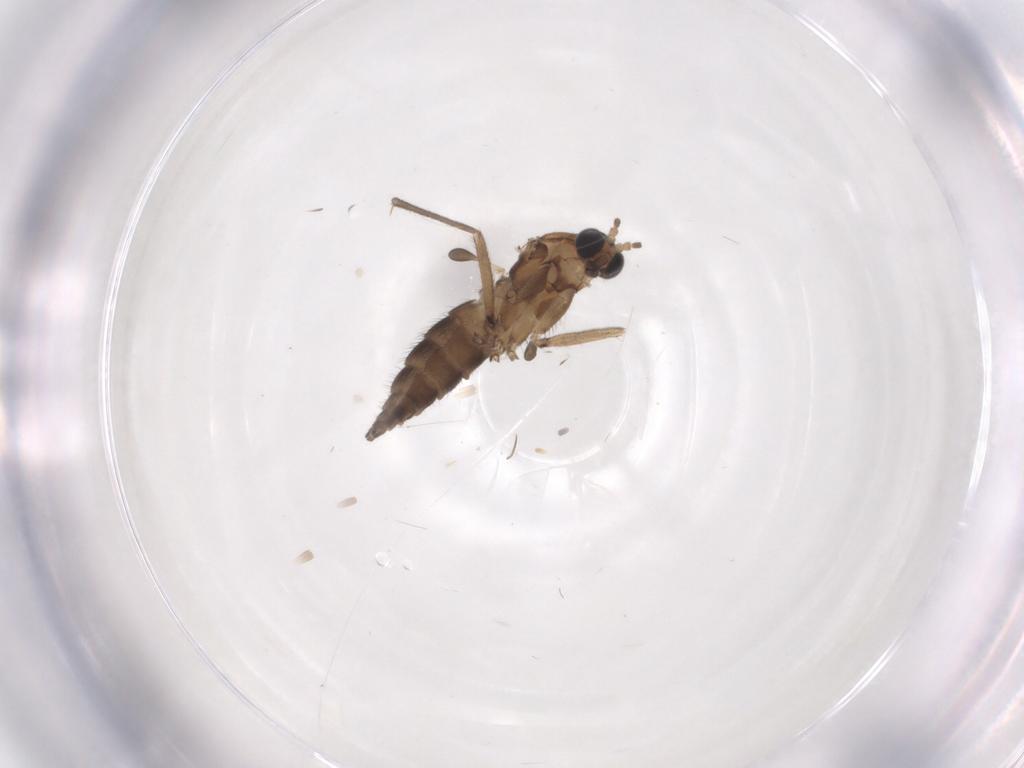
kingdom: Animalia
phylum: Arthropoda
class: Insecta
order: Diptera
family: Sciaridae
